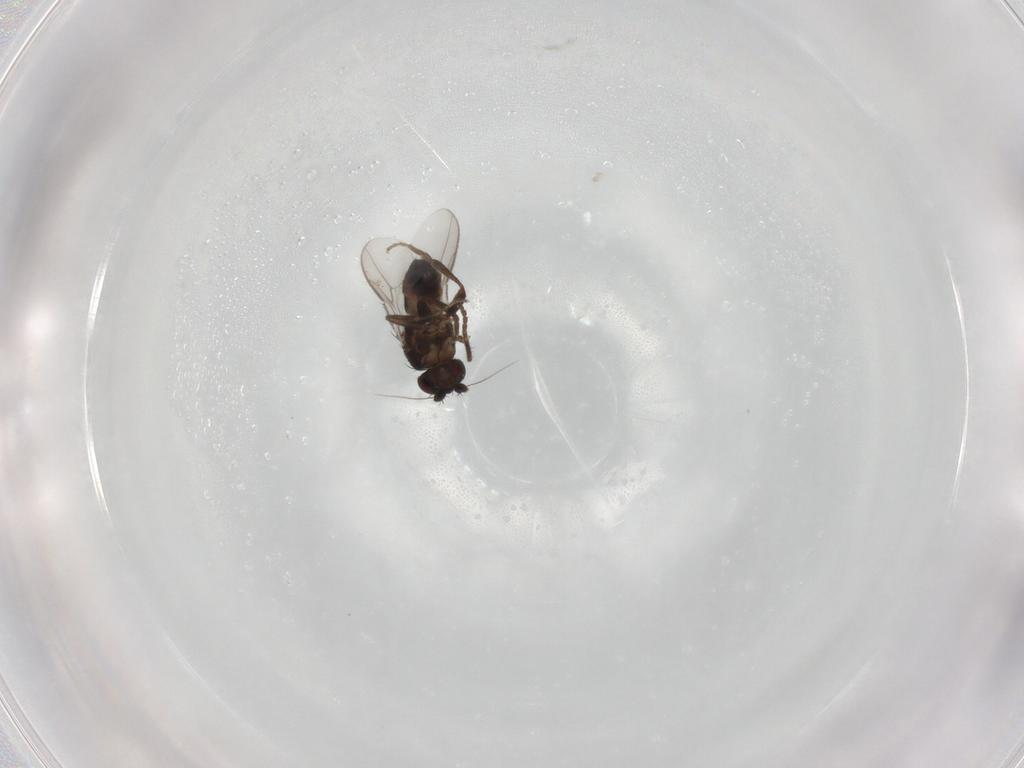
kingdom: Animalia
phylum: Arthropoda
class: Insecta
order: Diptera
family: Sphaeroceridae
